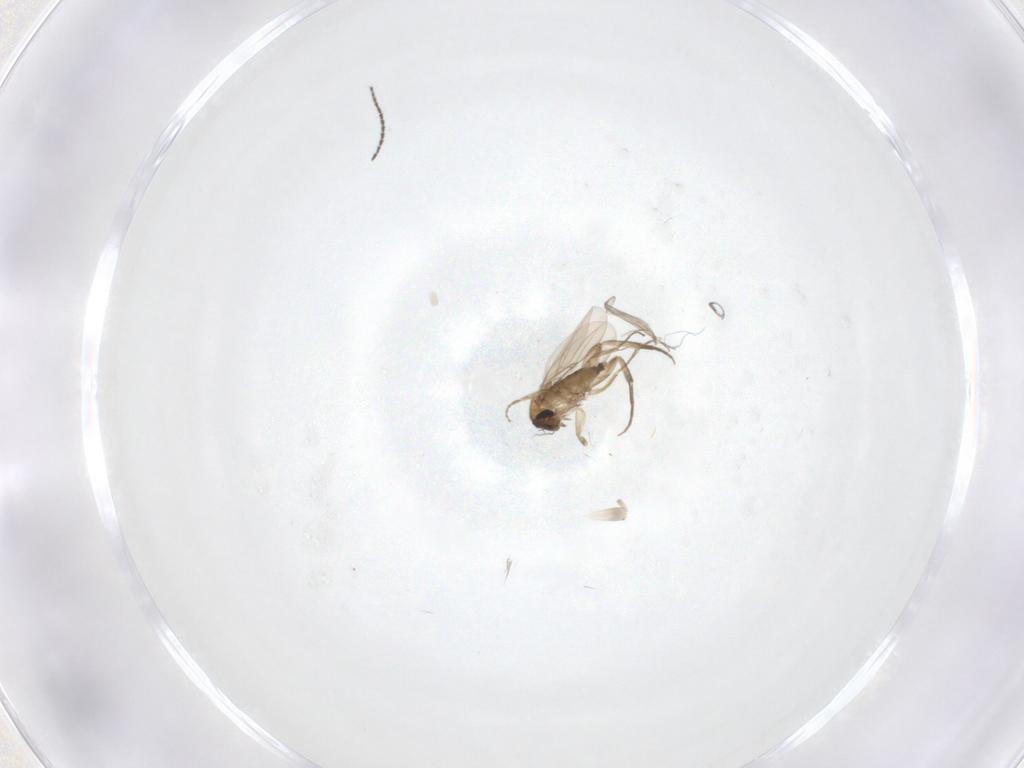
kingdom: Animalia
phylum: Arthropoda
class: Insecta
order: Diptera
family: Sciaridae
